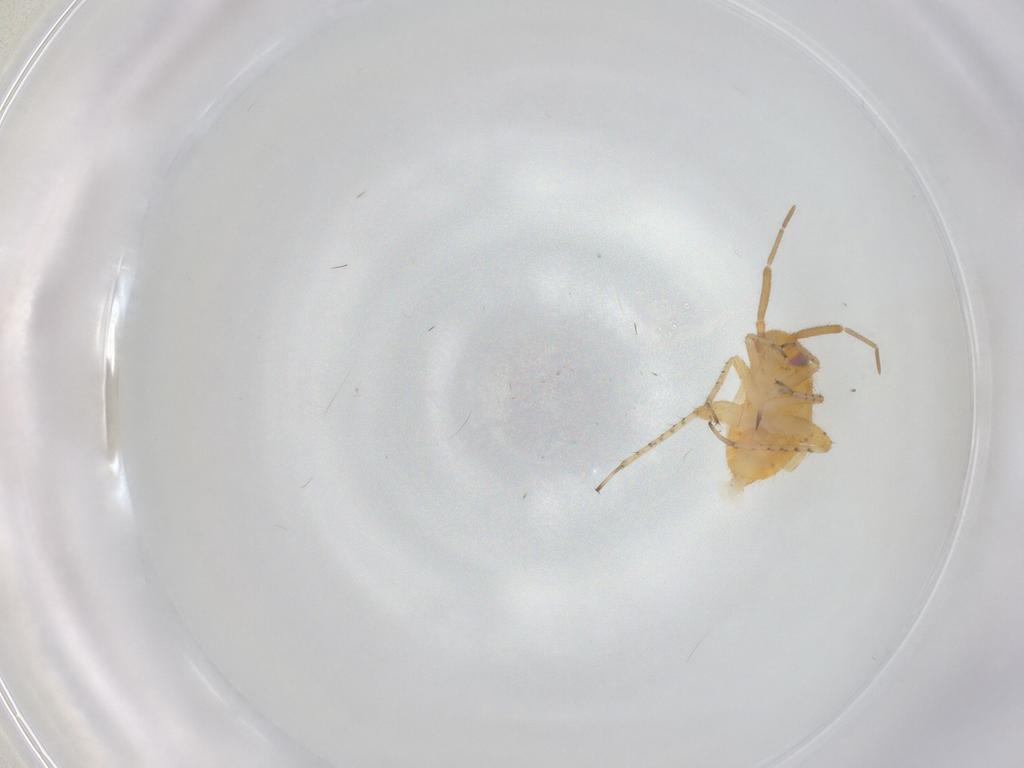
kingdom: Animalia
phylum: Arthropoda
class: Insecta
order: Hemiptera
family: Miridae
